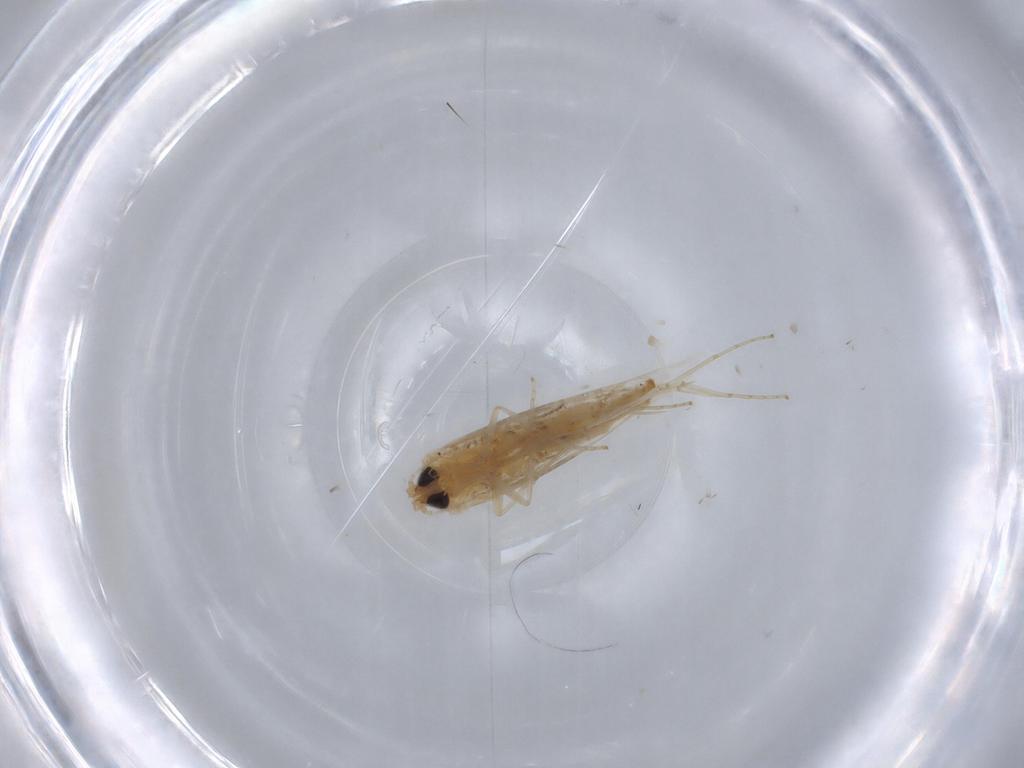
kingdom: Animalia
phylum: Arthropoda
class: Insecta
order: Lepidoptera
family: Tischeriidae
